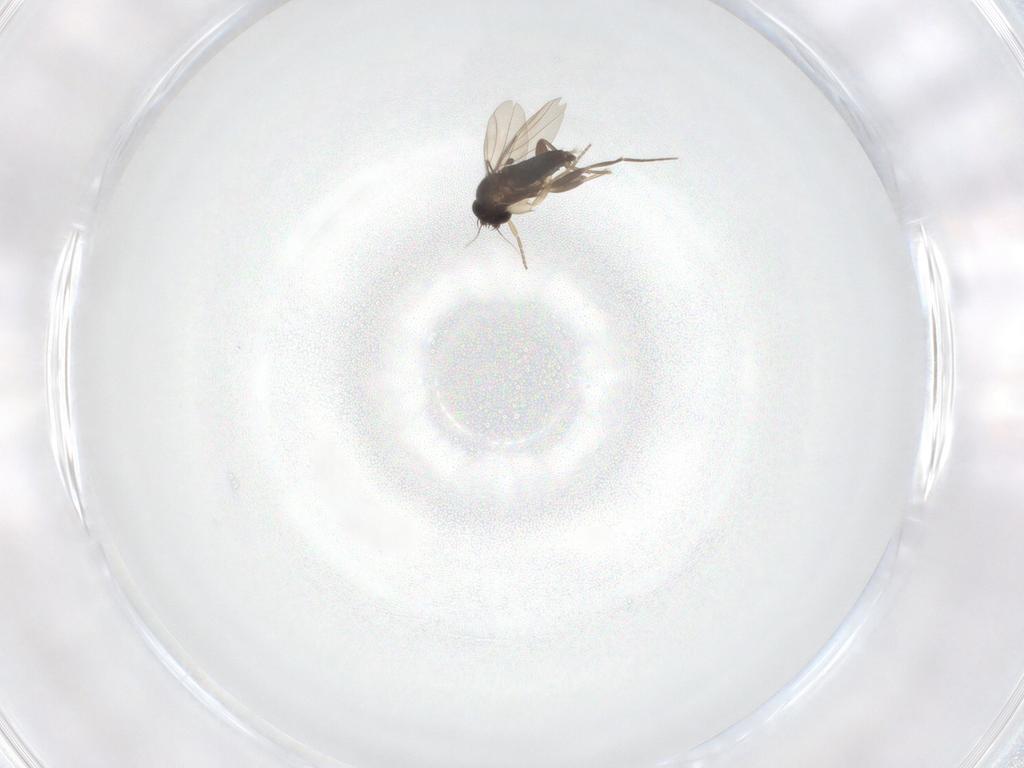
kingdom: Animalia
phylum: Arthropoda
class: Insecta
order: Diptera
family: Phoridae
